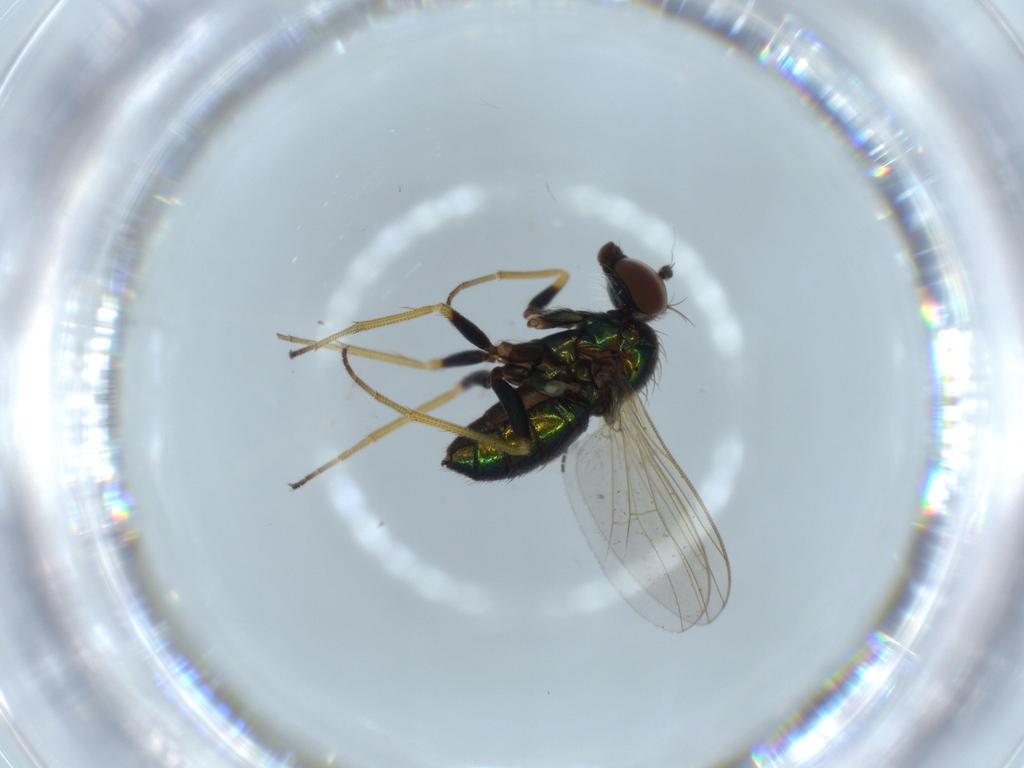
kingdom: Animalia
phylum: Arthropoda
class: Insecta
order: Diptera
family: Dolichopodidae
